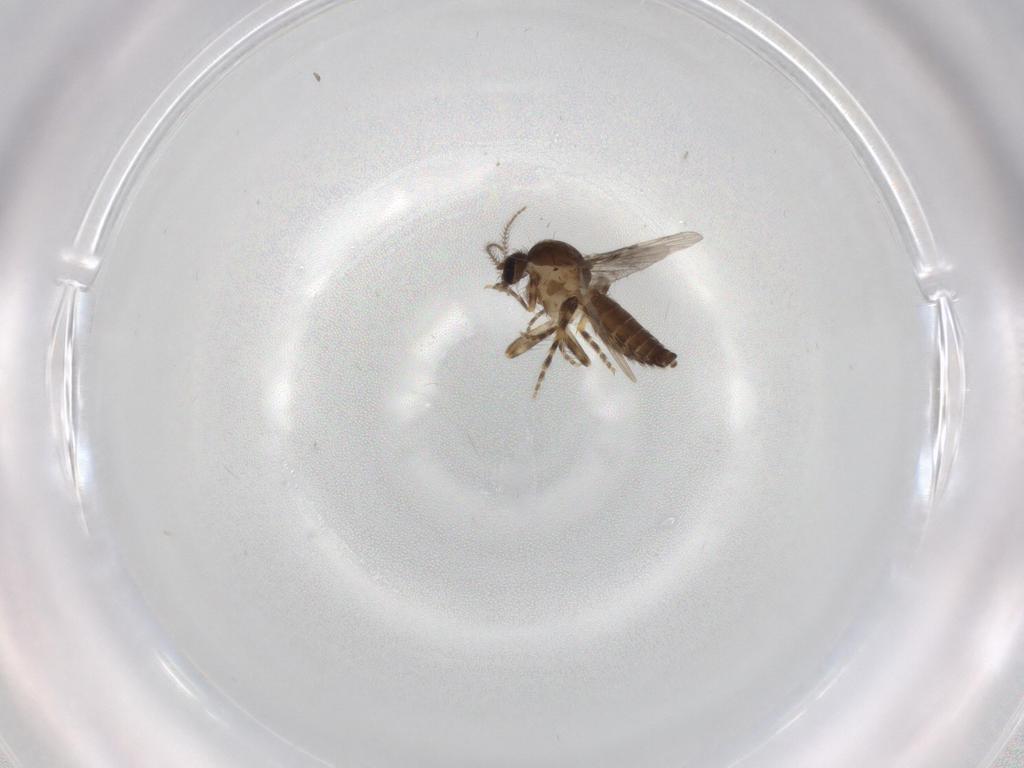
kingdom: Animalia
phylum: Arthropoda
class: Insecta
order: Diptera
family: Ceratopogonidae
